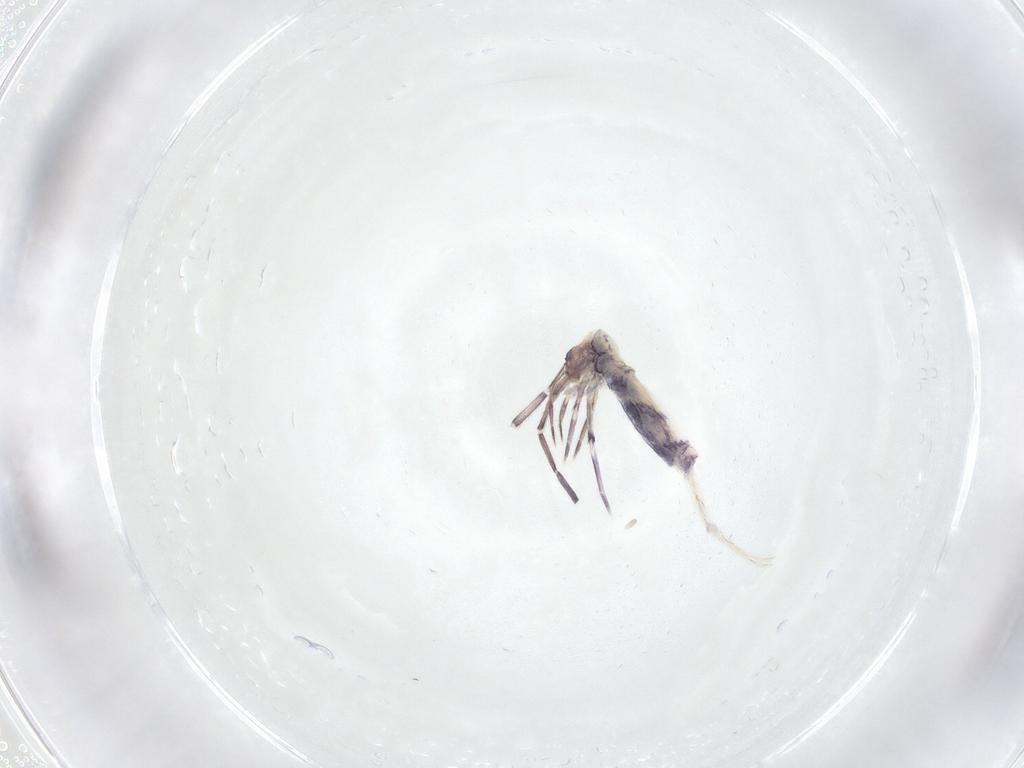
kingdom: Animalia
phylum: Arthropoda
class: Collembola
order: Entomobryomorpha
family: Entomobryidae
